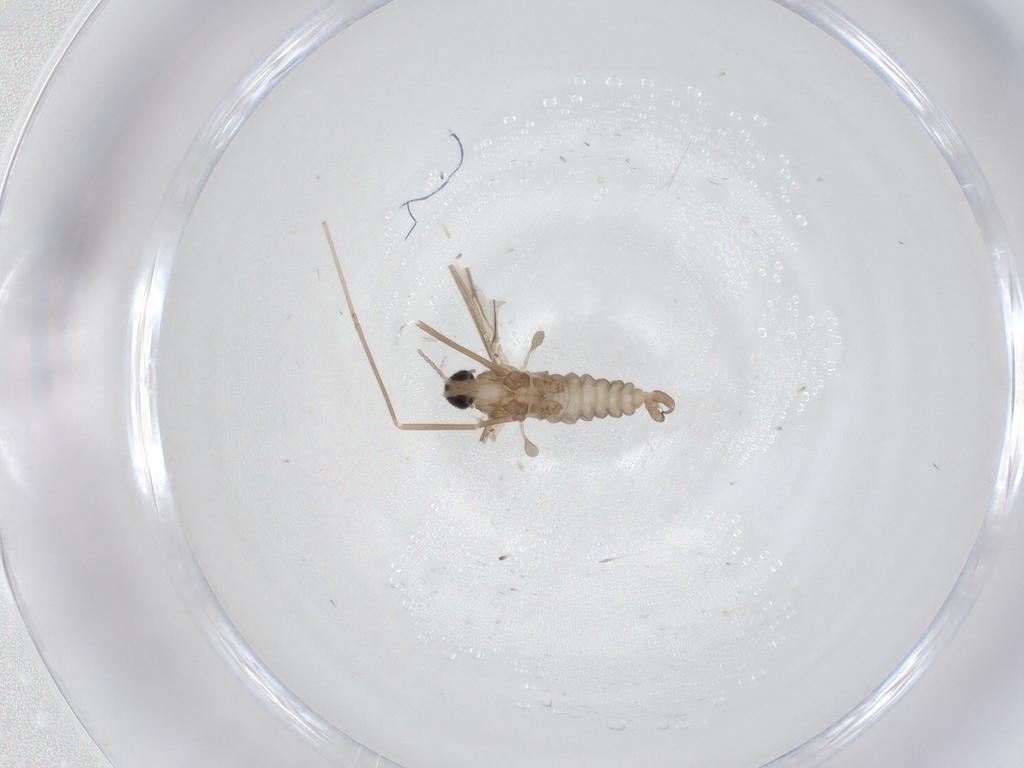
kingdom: Animalia
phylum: Arthropoda
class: Insecta
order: Diptera
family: Cecidomyiidae
